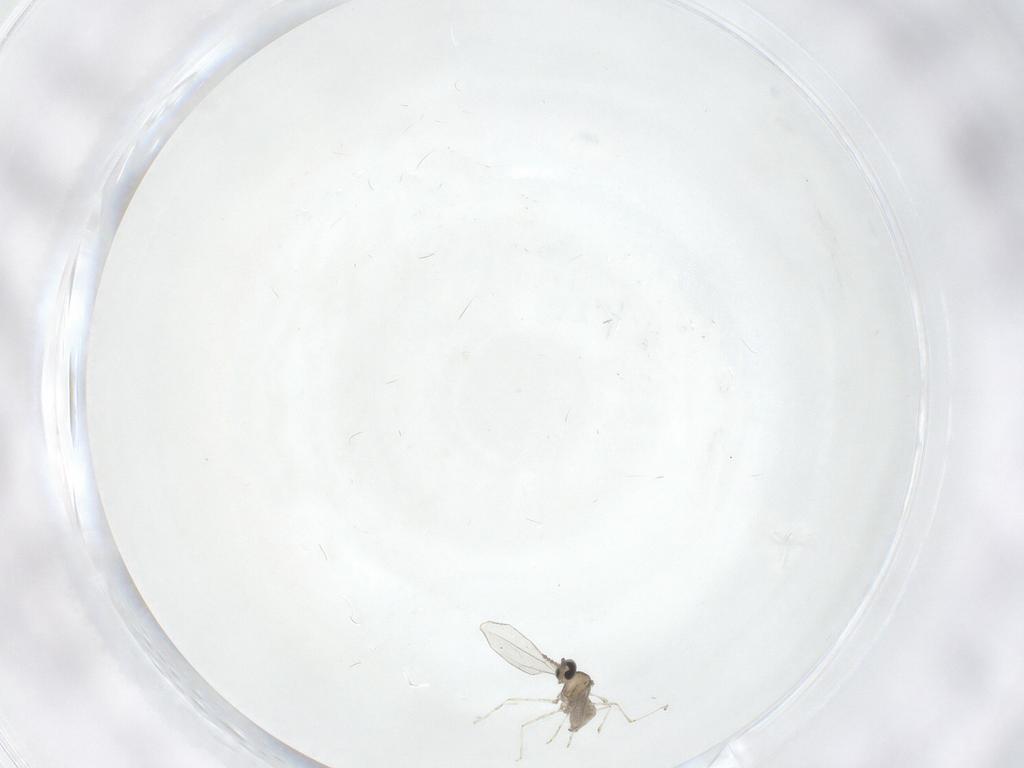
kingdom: Animalia
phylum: Arthropoda
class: Insecta
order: Diptera
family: Cecidomyiidae
